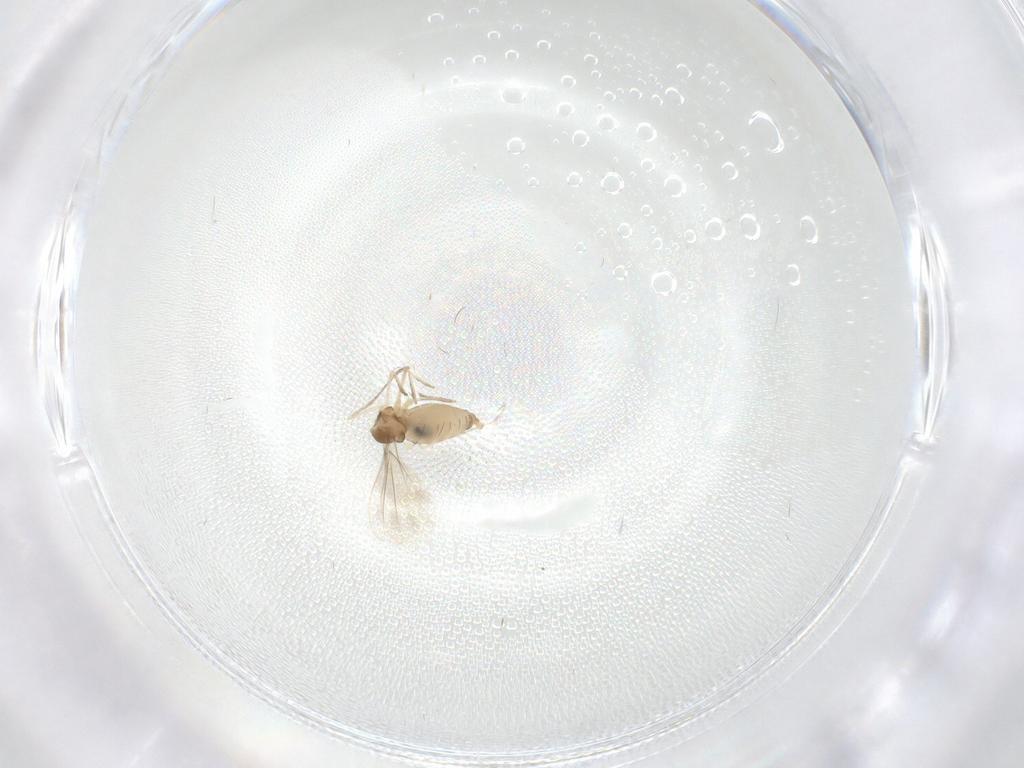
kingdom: Animalia
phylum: Arthropoda
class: Insecta
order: Diptera
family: Cecidomyiidae
